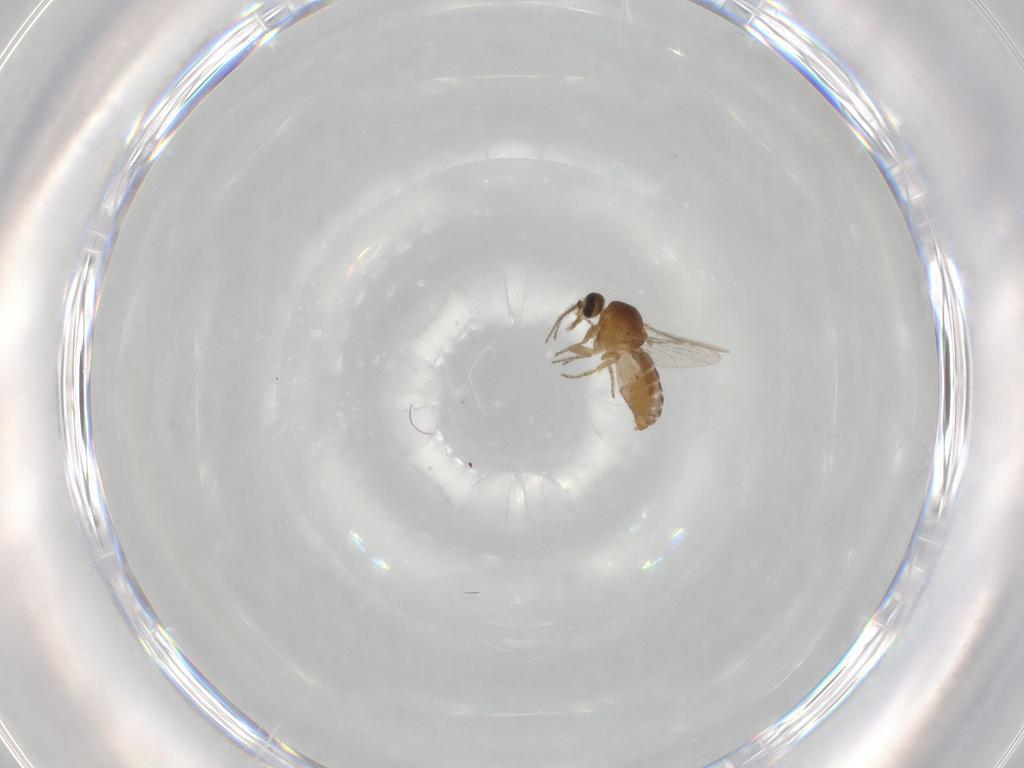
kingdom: Animalia
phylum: Arthropoda
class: Insecta
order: Diptera
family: Ceratopogonidae
